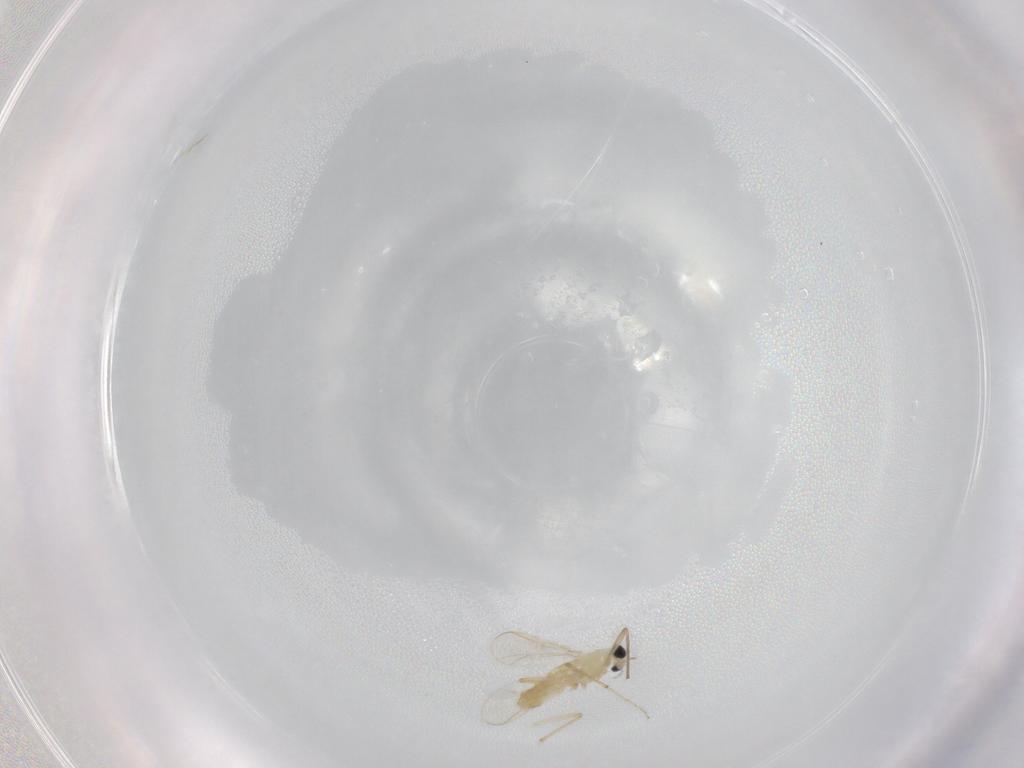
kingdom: Animalia
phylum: Arthropoda
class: Insecta
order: Diptera
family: Chironomidae
